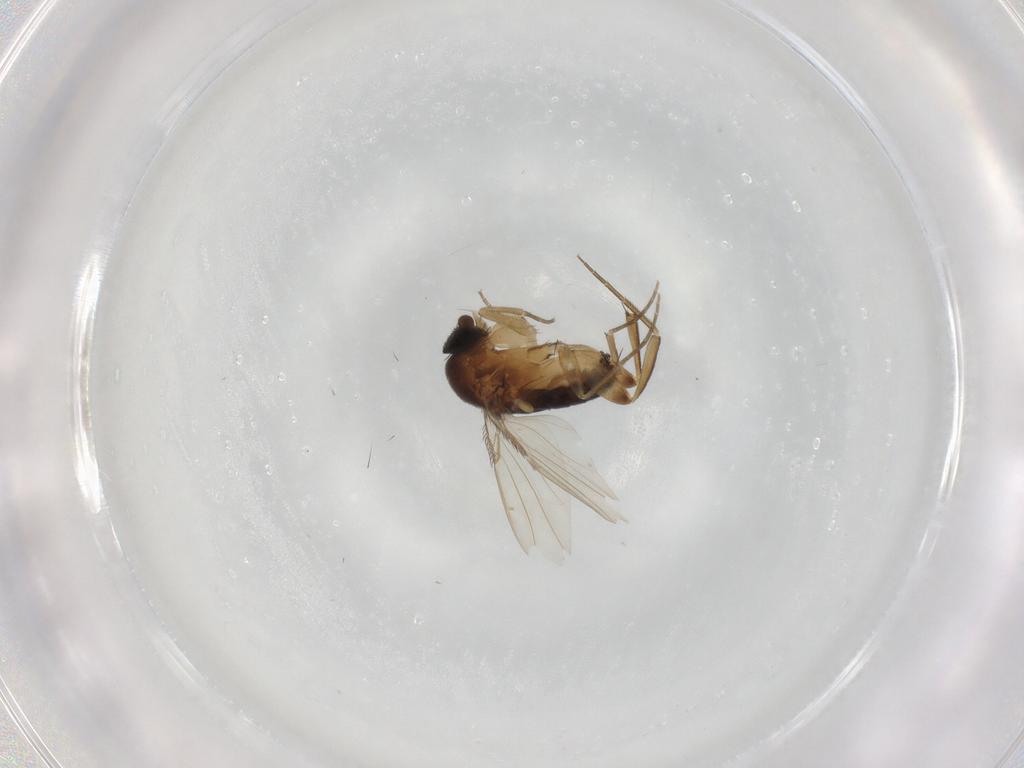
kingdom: Animalia
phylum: Arthropoda
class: Insecta
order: Diptera
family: Phoridae
